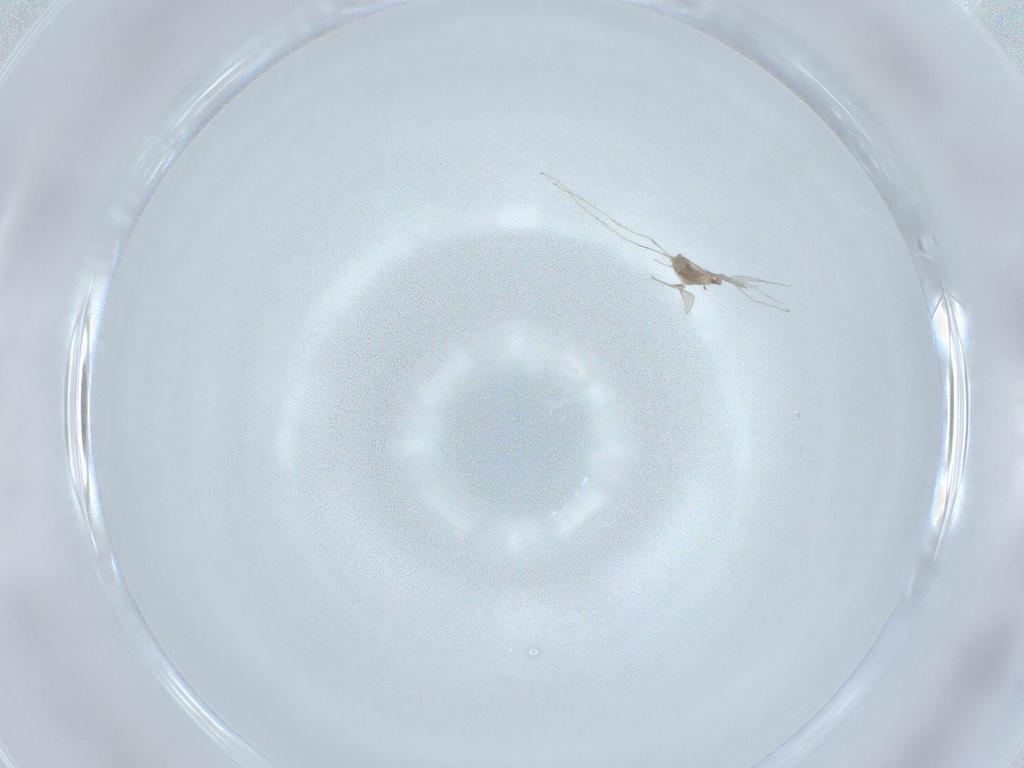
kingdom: Animalia
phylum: Arthropoda
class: Insecta
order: Diptera
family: Cecidomyiidae
